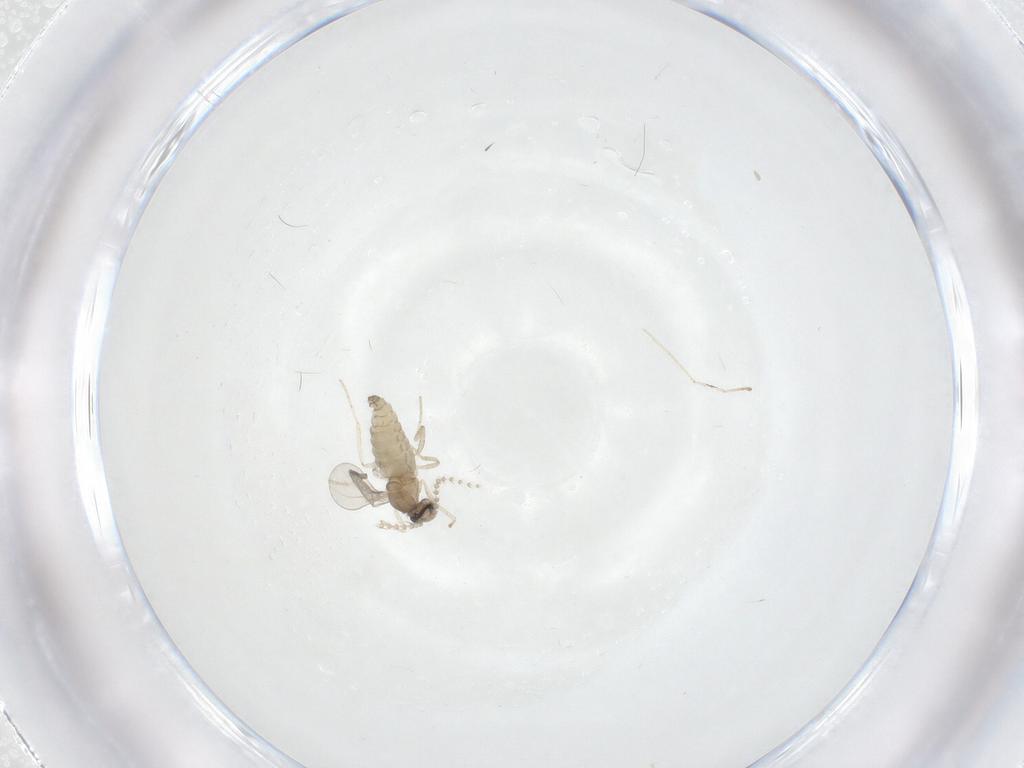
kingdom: Animalia
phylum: Arthropoda
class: Insecta
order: Diptera
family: Cecidomyiidae
